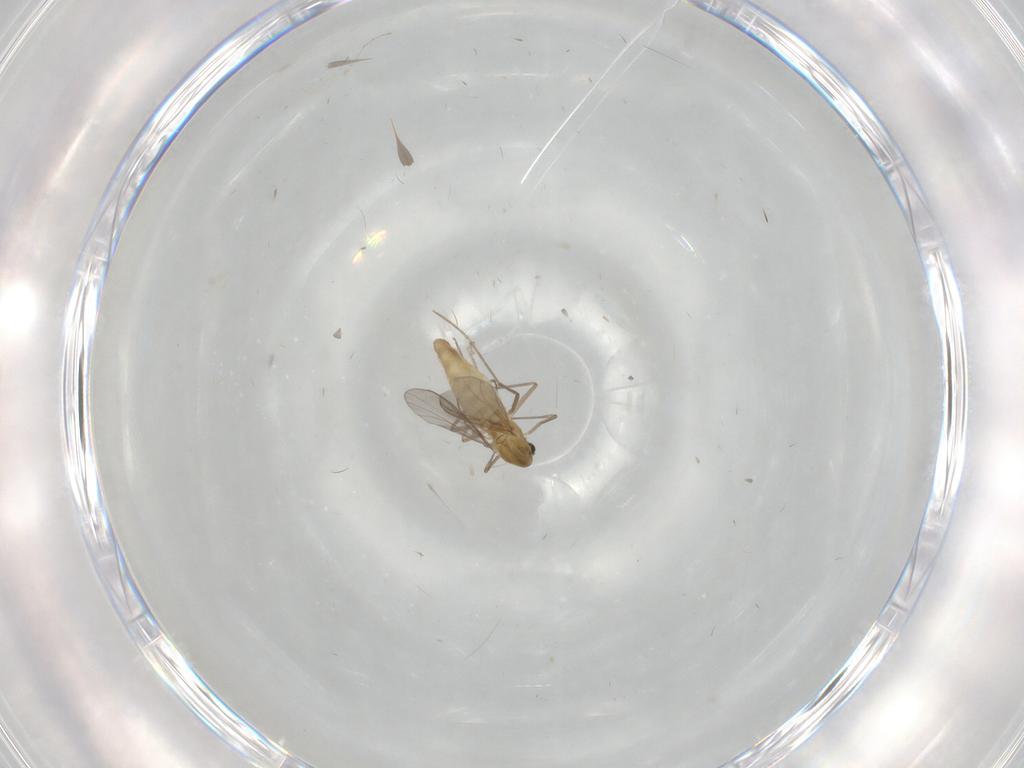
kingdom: Animalia
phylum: Arthropoda
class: Insecta
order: Diptera
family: Chironomidae
